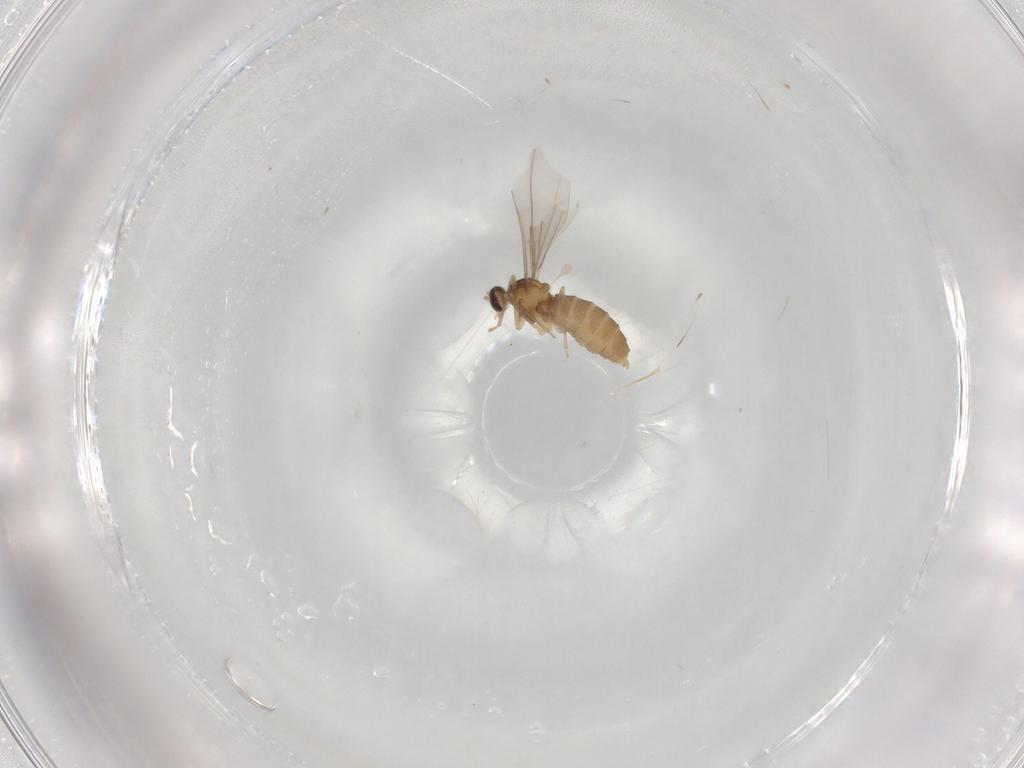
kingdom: Animalia
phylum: Arthropoda
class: Insecta
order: Diptera
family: Cecidomyiidae
